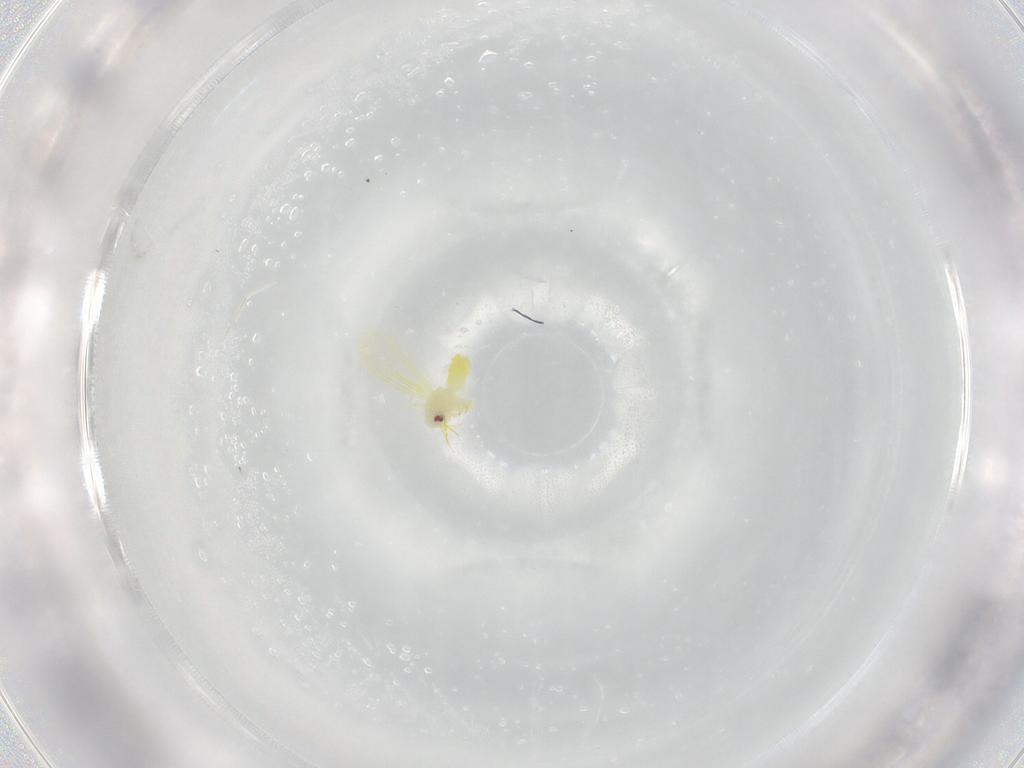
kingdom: Animalia
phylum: Arthropoda
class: Insecta
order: Hemiptera
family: Aleyrodidae
